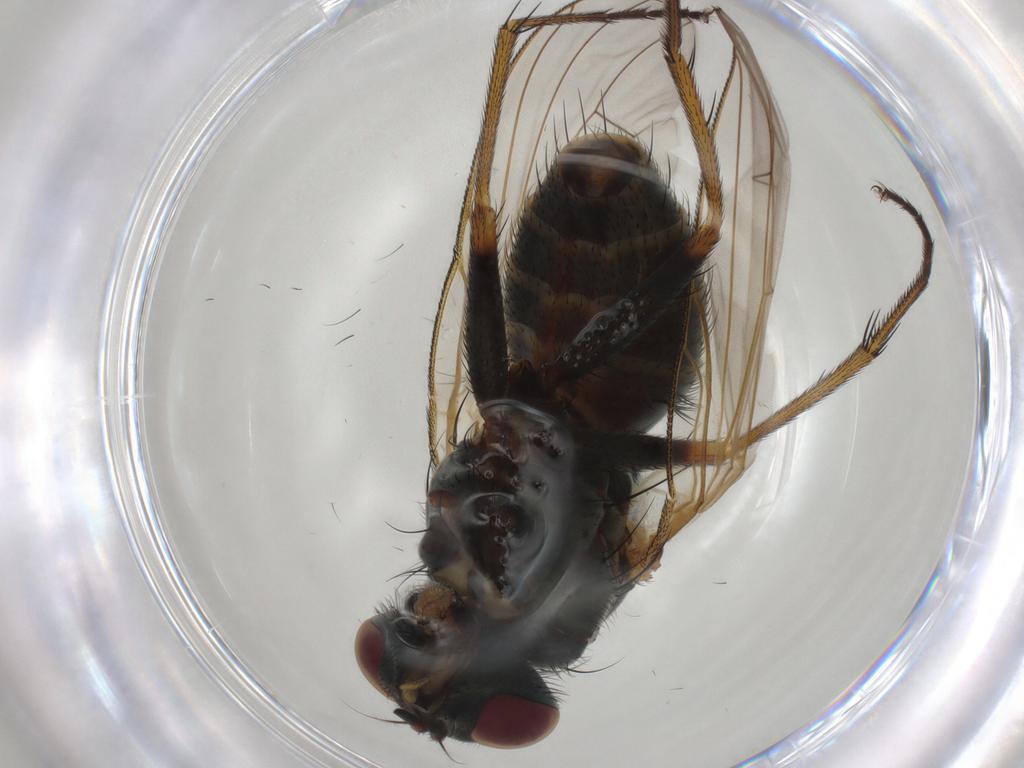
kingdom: Animalia
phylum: Arthropoda
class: Insecta
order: Diptera
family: Muscidae
